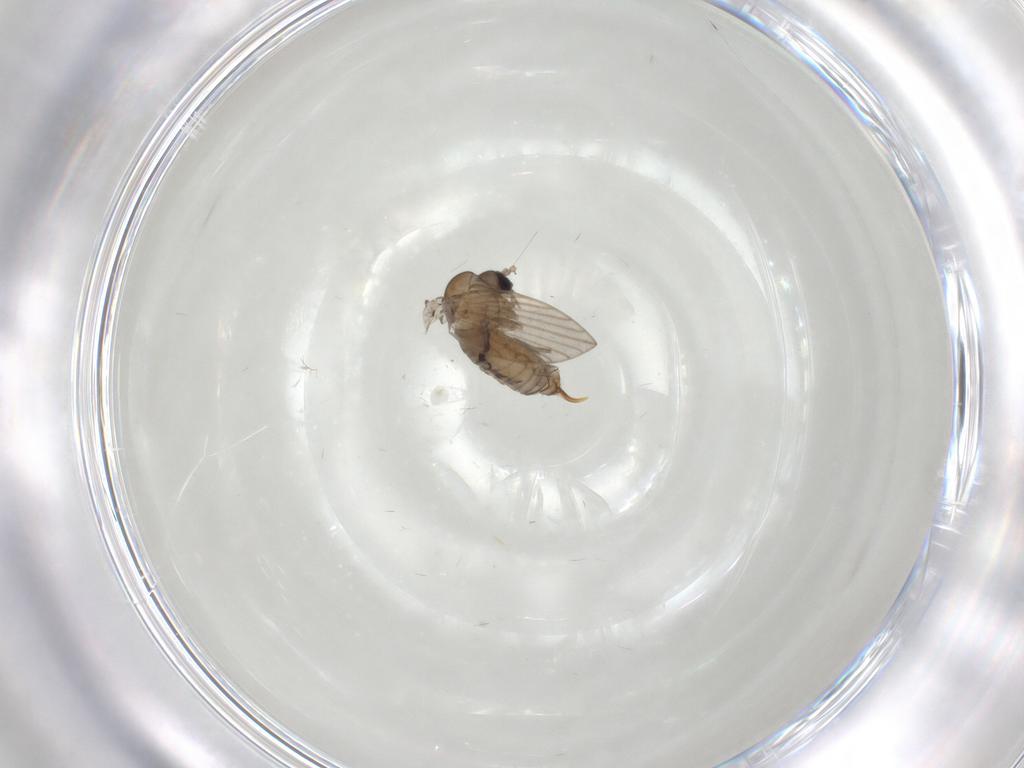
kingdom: Animalia
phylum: Arthropoda
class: Insecta
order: Diptera
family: Psychodidae
